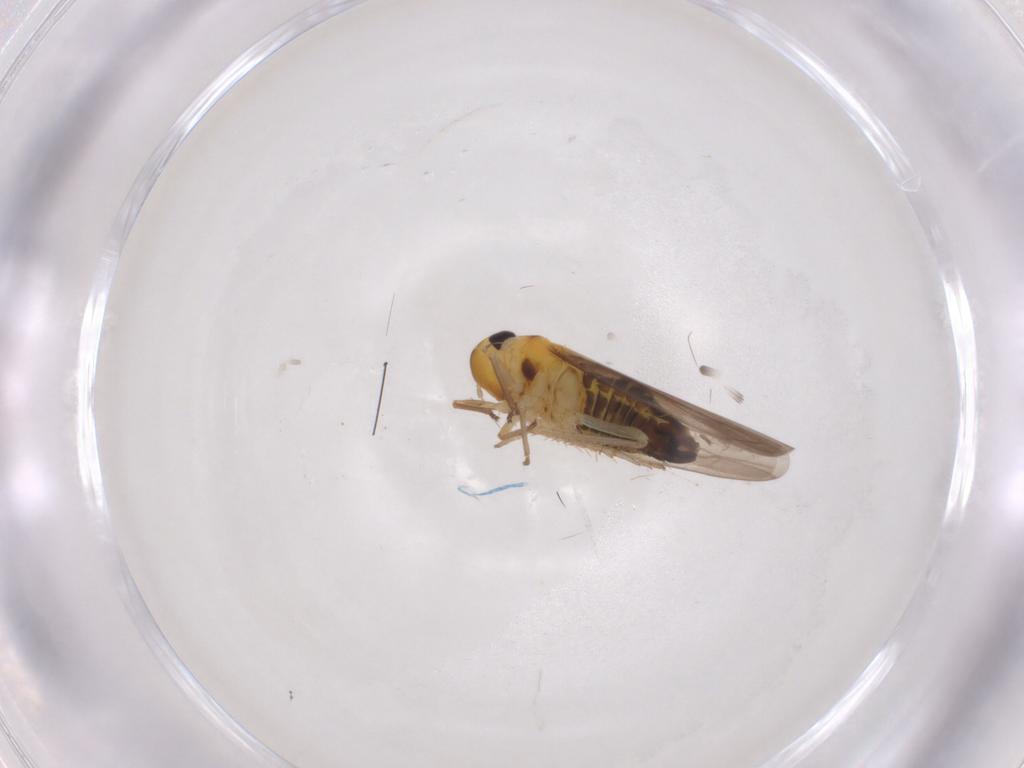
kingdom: Animalia
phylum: Arthropoda
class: Insecta
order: Hemiptera
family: Cicadellidae
